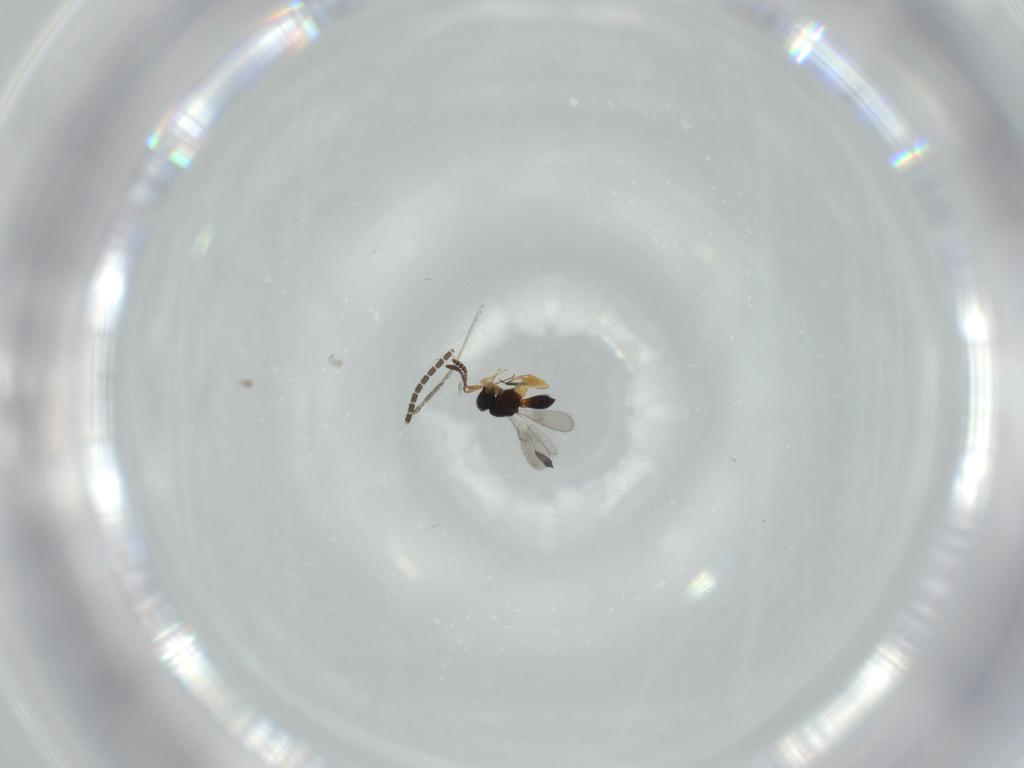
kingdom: Animalia
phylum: Arthropoda
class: Insecta
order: Hymenoptera
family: Scelionidae
